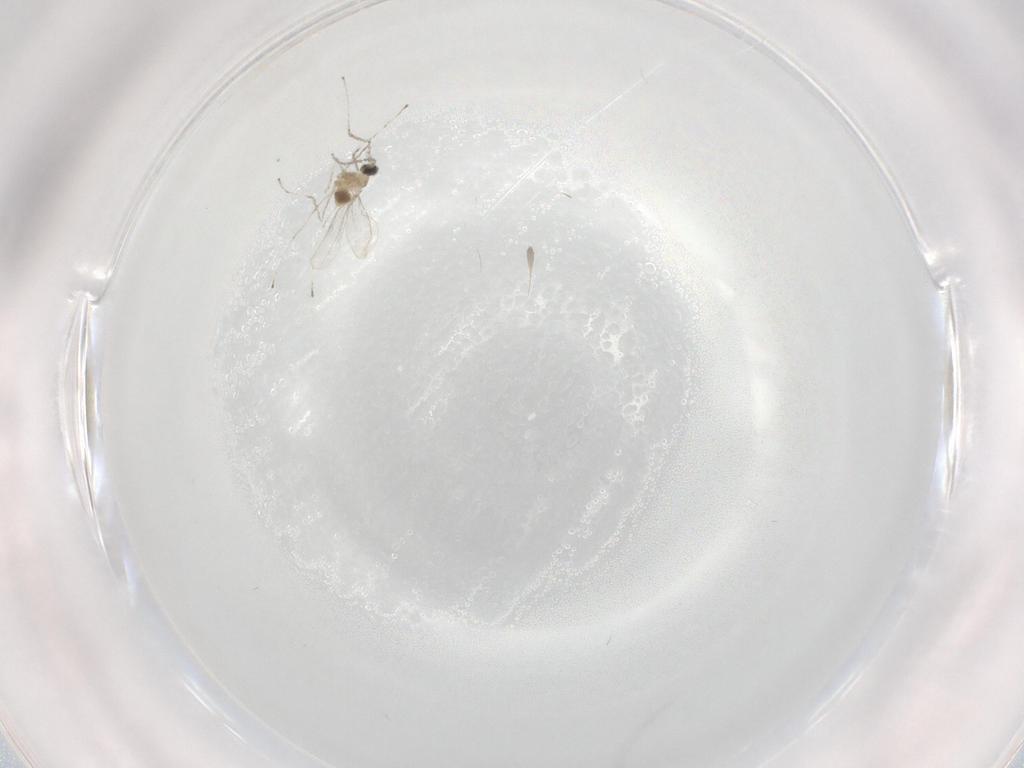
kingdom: Animalia
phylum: Arthropoda
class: Insecta
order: Diptera
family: Cecidomyiidae
